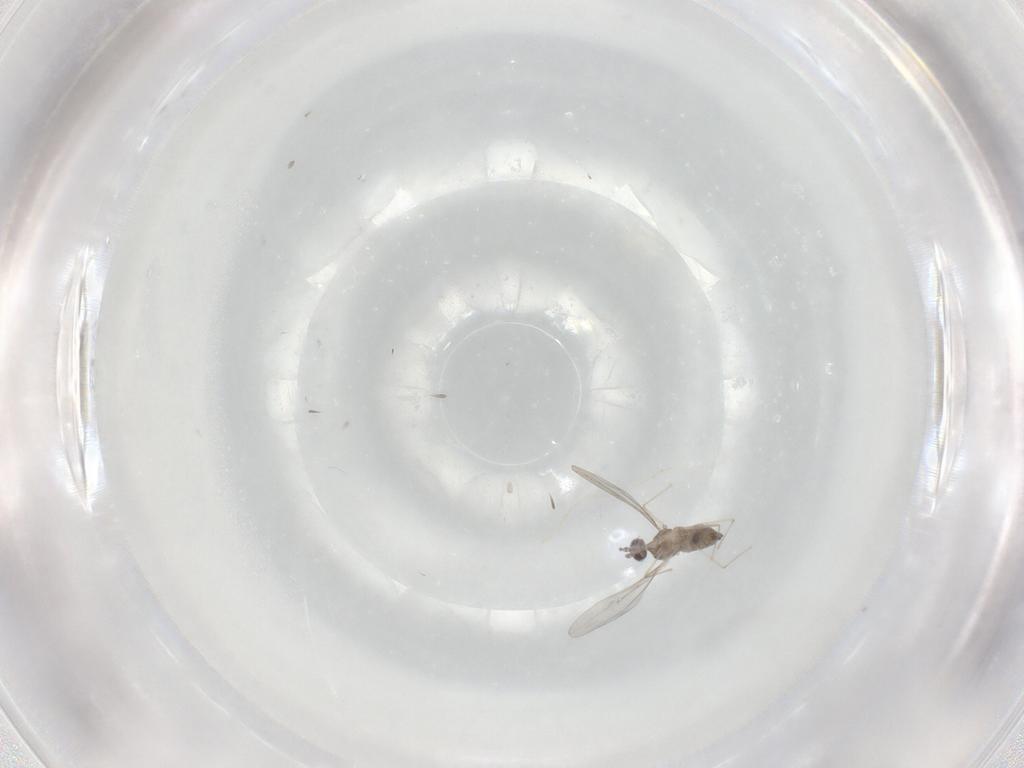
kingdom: Animalia
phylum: Arthropoda
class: Insecta
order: Diptera
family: Cecidomyiidae
